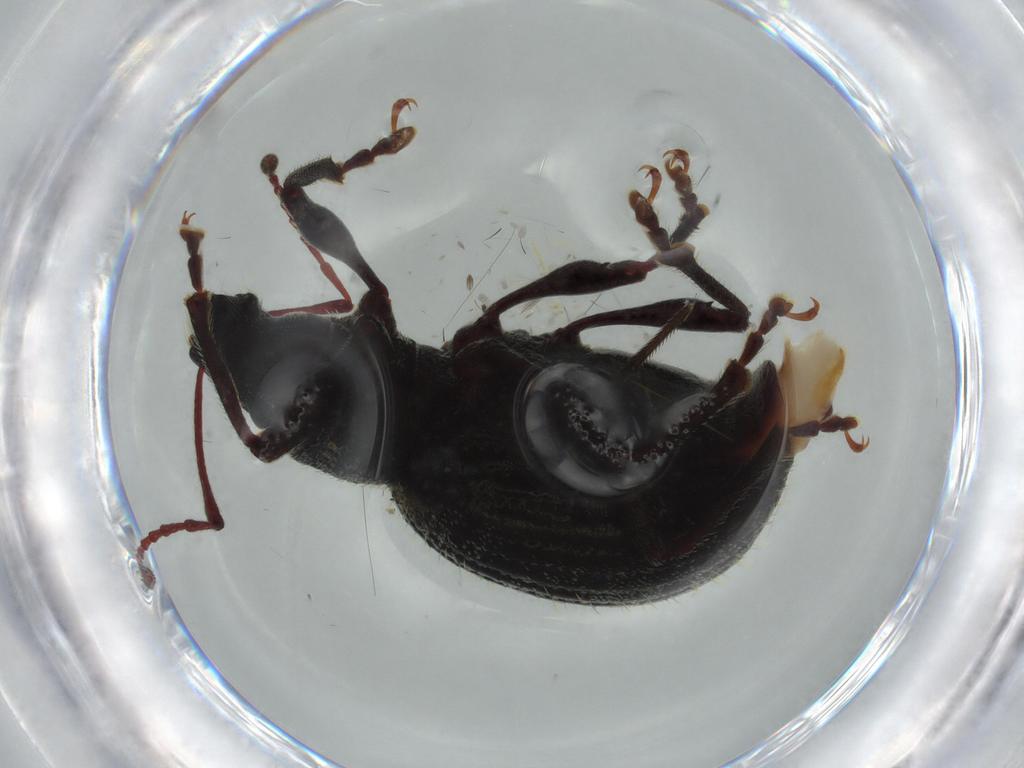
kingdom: Animalia
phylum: Arthropoda
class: Insecta
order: Coleoptera
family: Curculionidae
